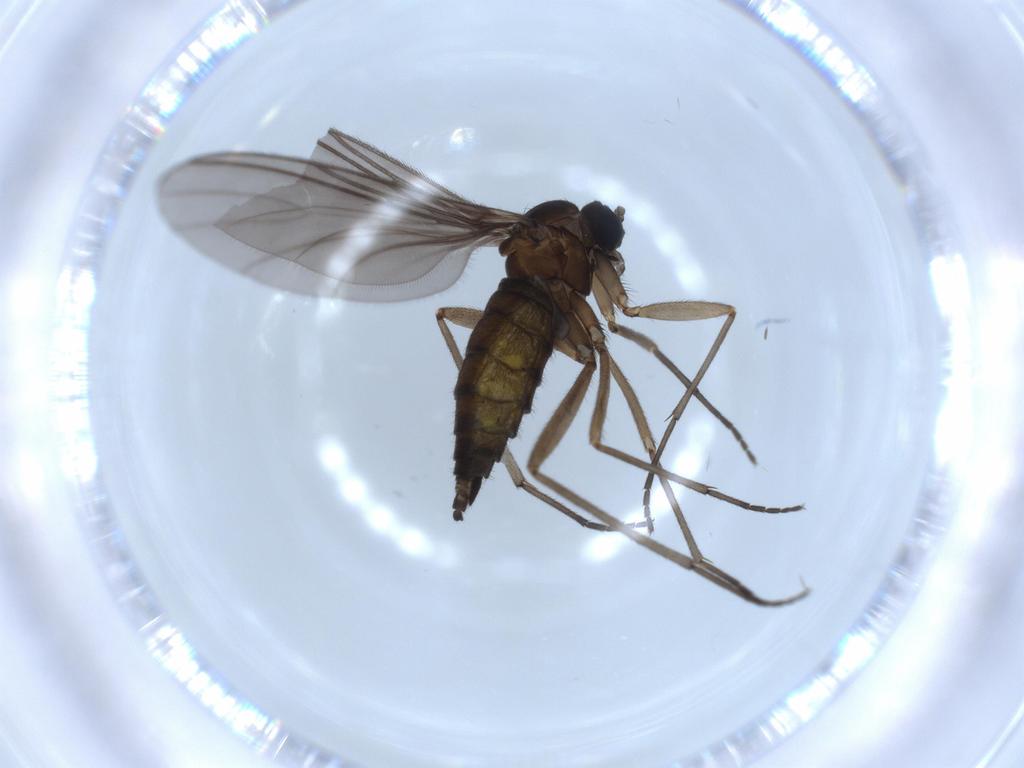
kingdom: Animalia
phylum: Arthropoda
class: Insecta
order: Diptera
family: Sciaridae
